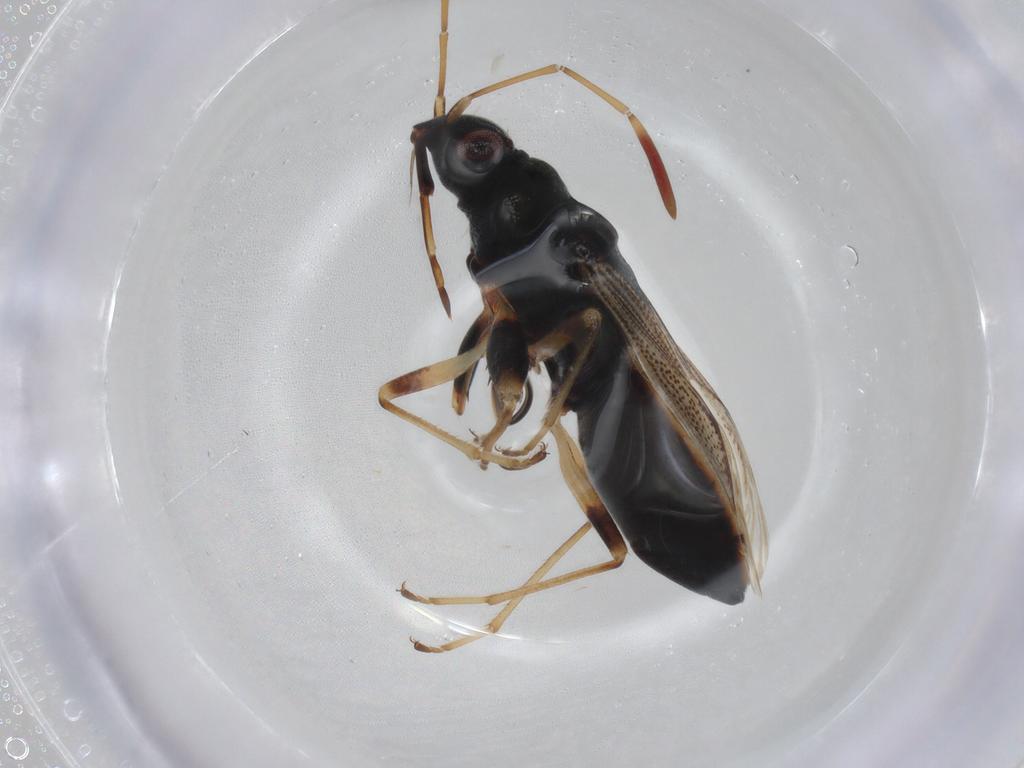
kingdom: Animalia
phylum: Arthropoda
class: Insecta
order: Hemiptera
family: Rhyparochromidae
